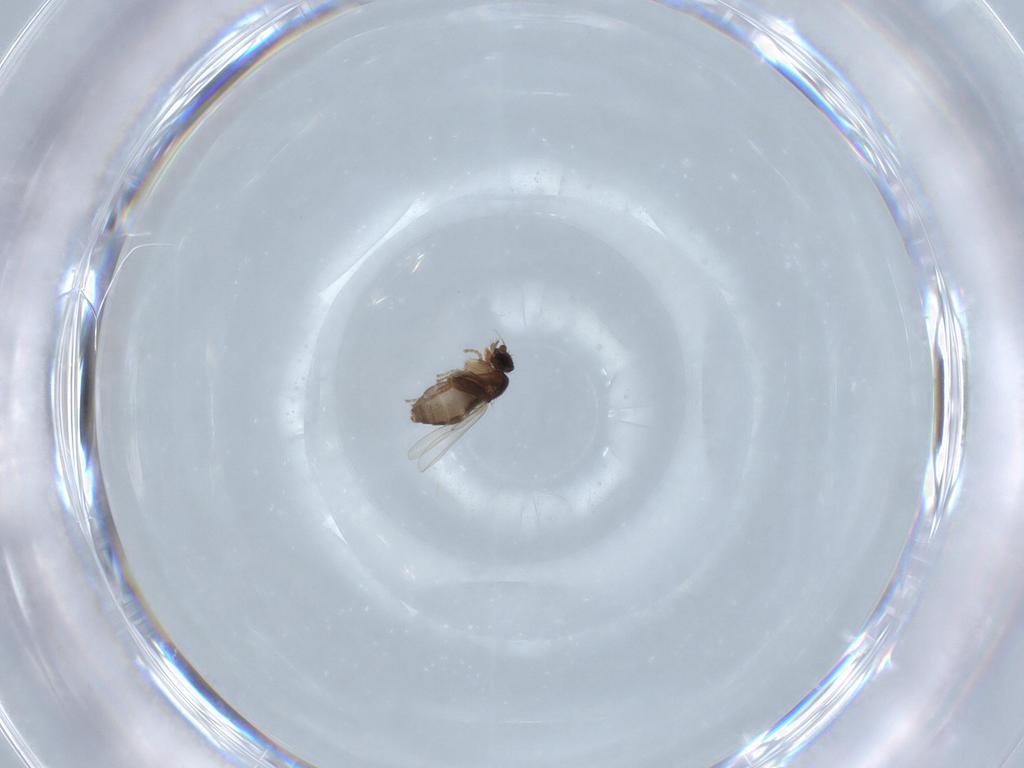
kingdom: Animalia
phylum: Arthropoda
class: Insecta
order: Diptera
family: Phoridae
